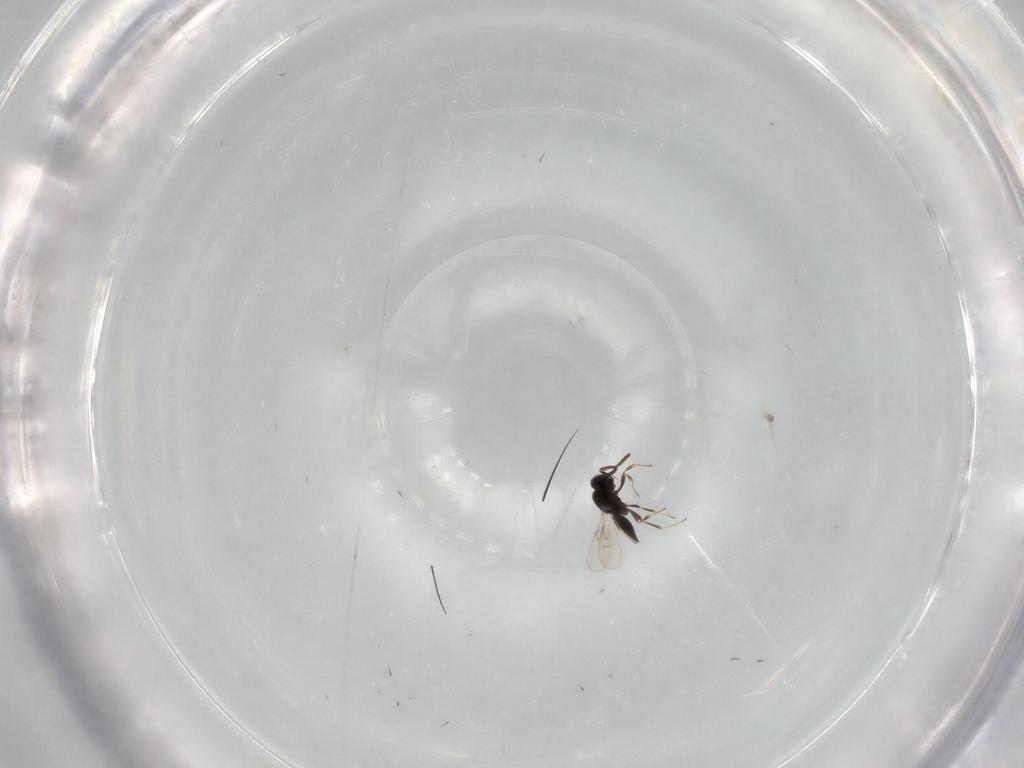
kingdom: Animalia
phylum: Arthropoda
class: Insecta
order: Hymenoptera
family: Scelionidae
